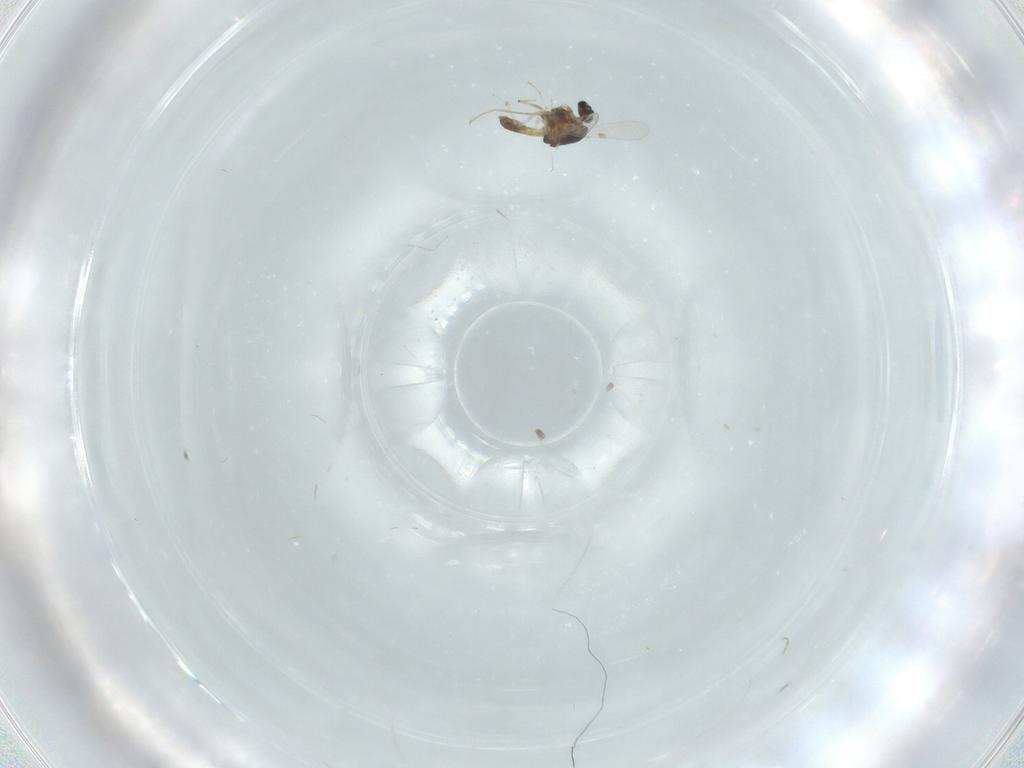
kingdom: Animalia
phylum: Arthropoda
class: Insecta
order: Diptera
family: Chironomidae
